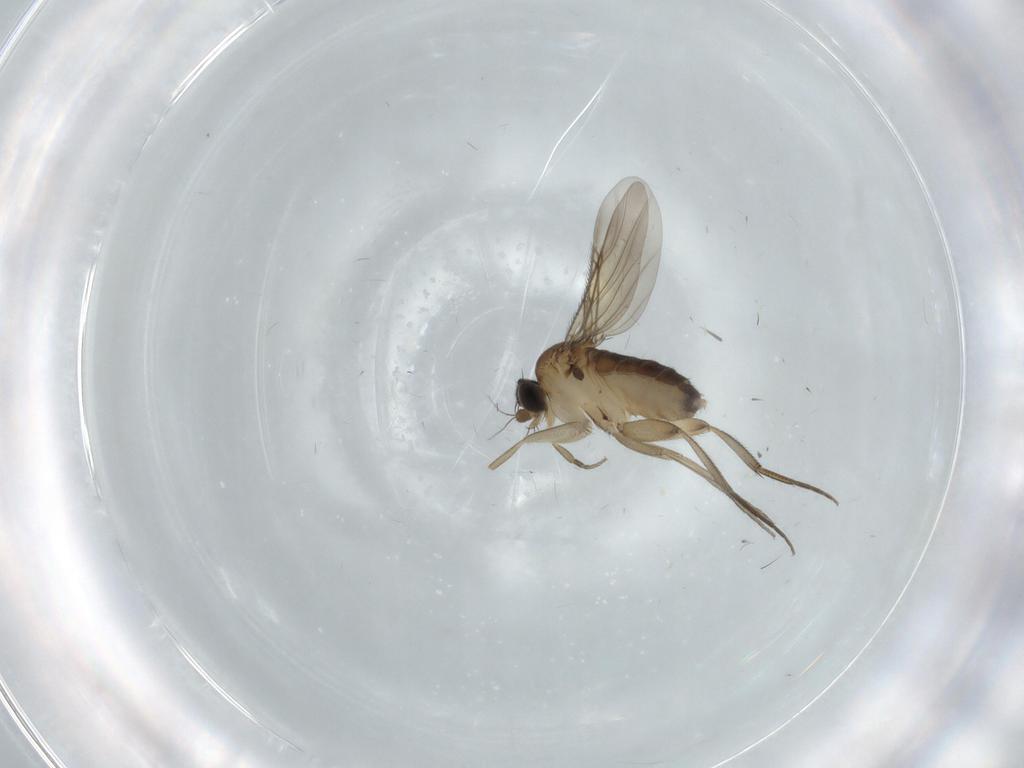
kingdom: Animalia
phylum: Arthropoda
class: Insecta
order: Diptera
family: Phoridae
